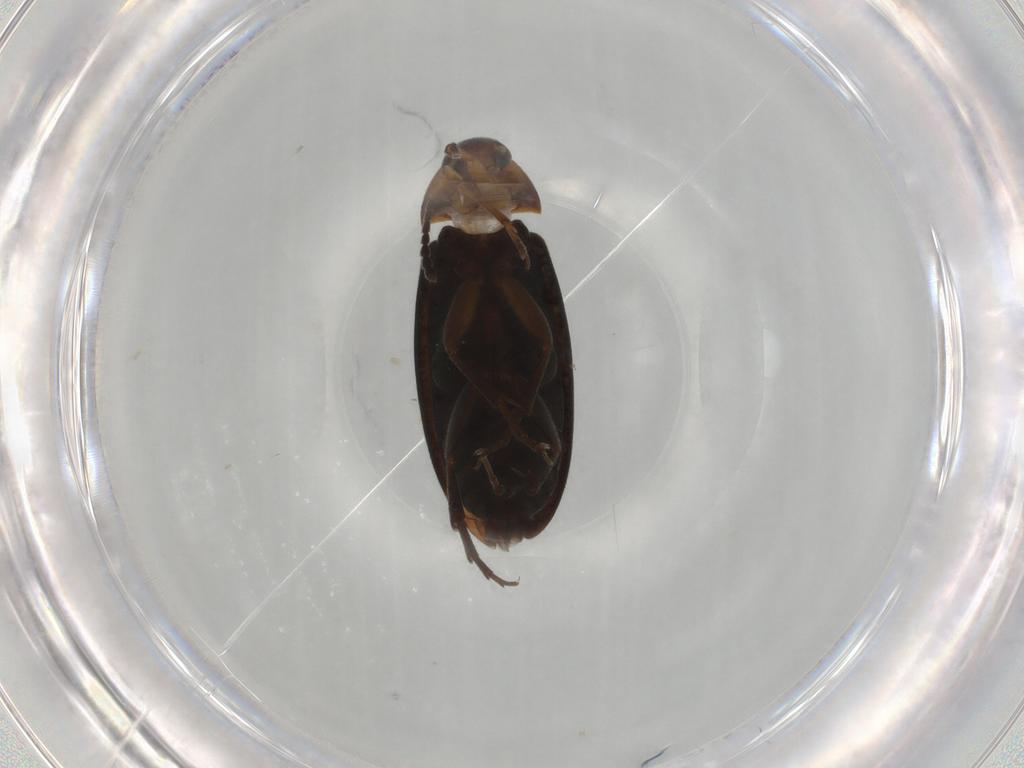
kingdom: Animalia
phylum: Arthropoda
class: Insecta
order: Coleoptera
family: Scraptiidae
